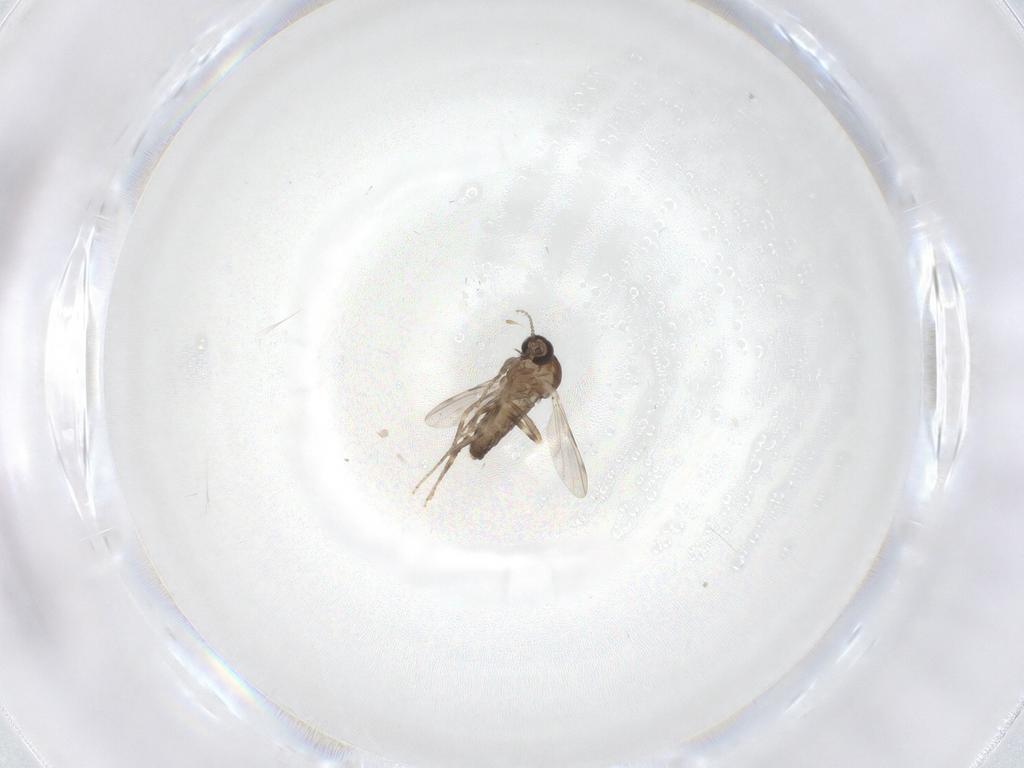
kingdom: Animalia
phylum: Arthropoda
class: Insecta
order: Diptera
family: Ceratopogonidae
